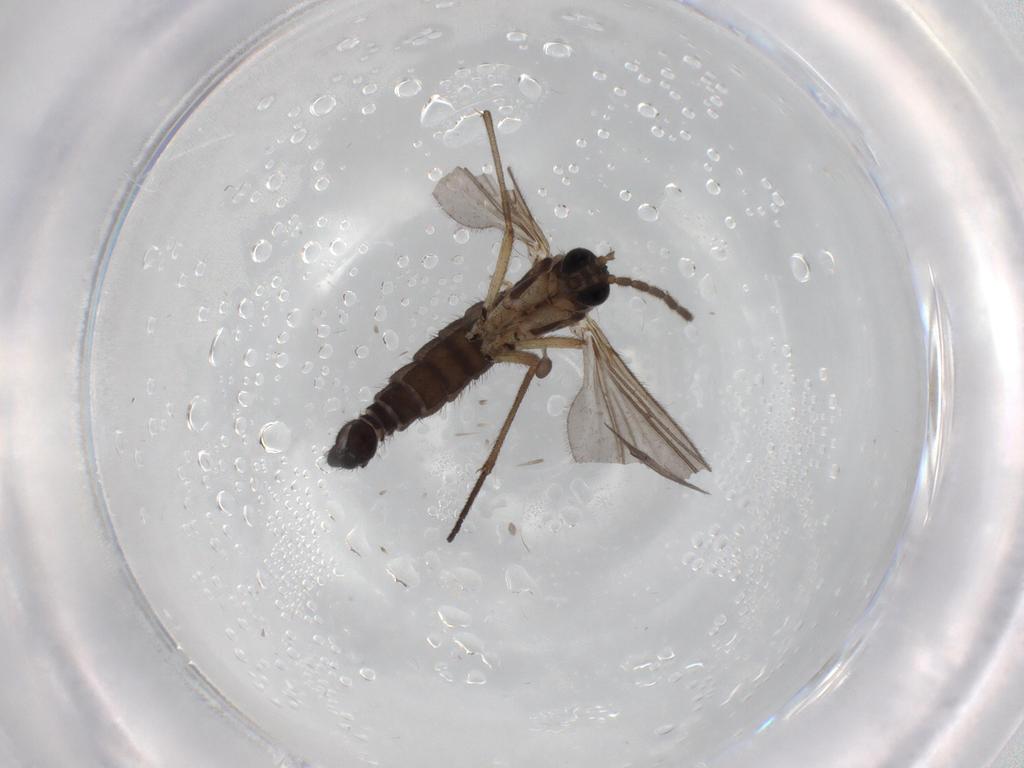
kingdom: Animalia
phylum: Arthropoda
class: Insecta
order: Diptera
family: Sciaridae
